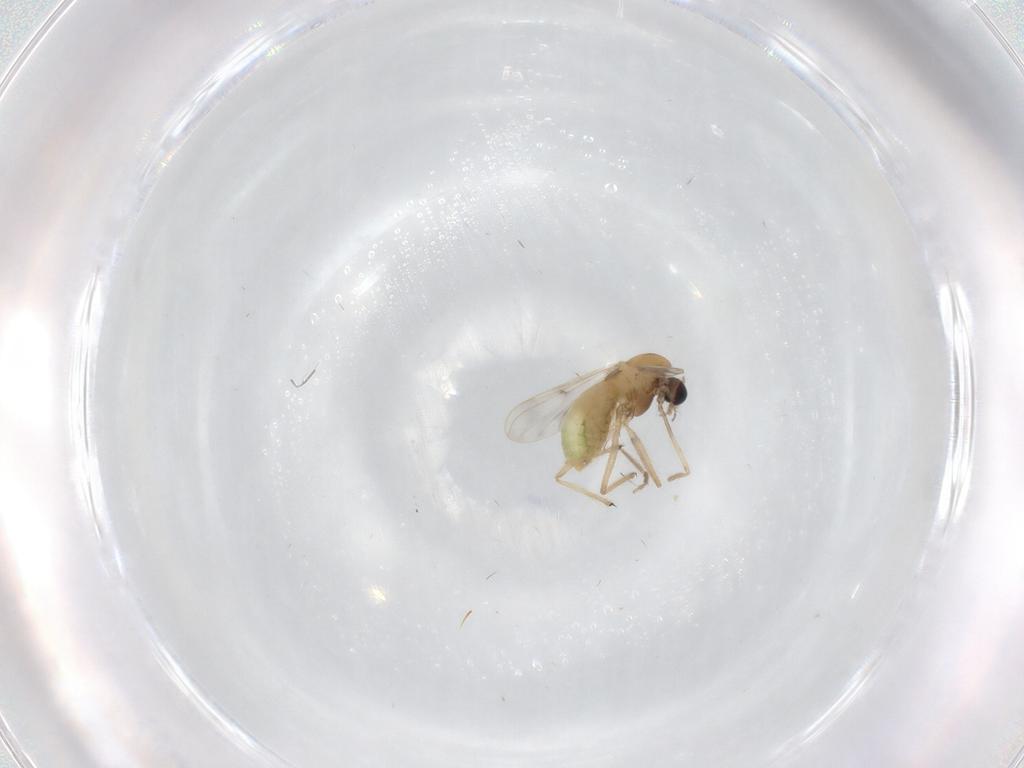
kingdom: Animalia
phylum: Arthropoda
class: Insecta
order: Diptera
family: Chironomidae
